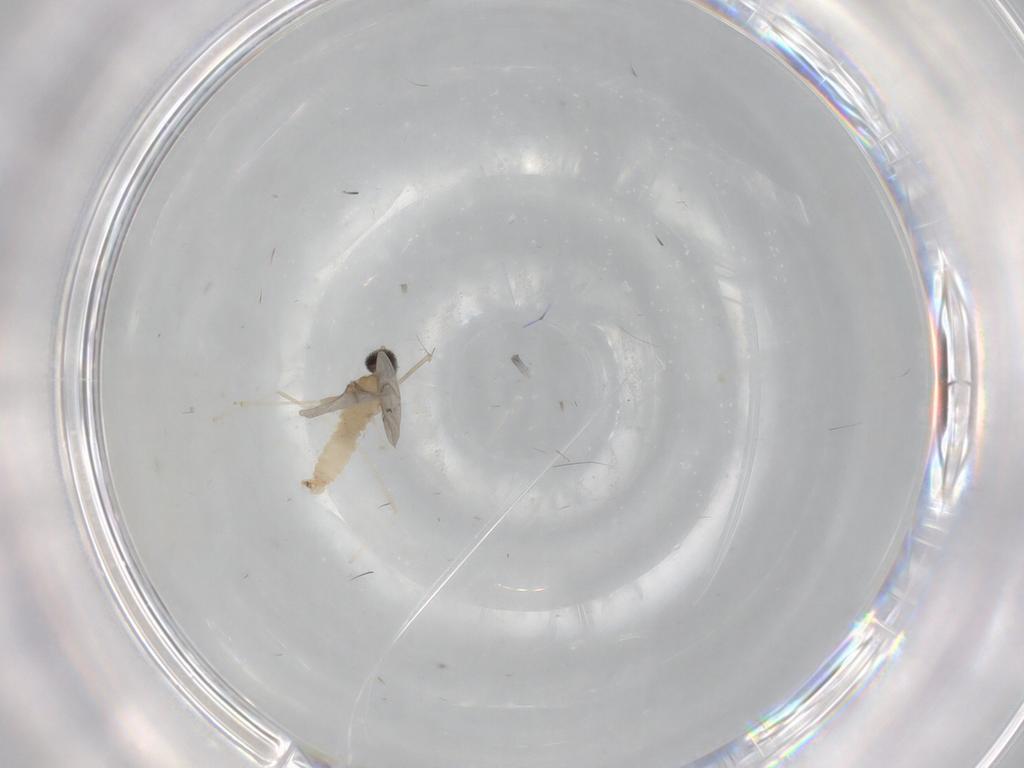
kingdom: Animalia
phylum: Arthropoda
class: Insecta
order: Diptera
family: Cecidomyiidae
